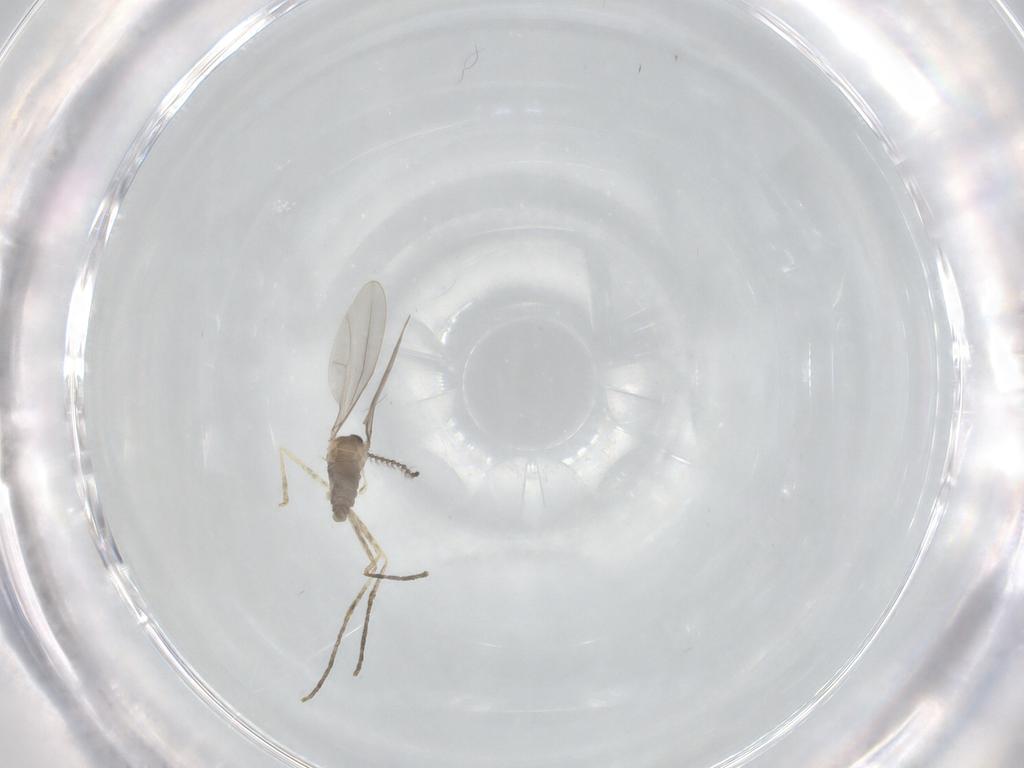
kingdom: Animalia
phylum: Arthropoda
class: Insecta
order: Diptera
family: Cecidomyiidae
